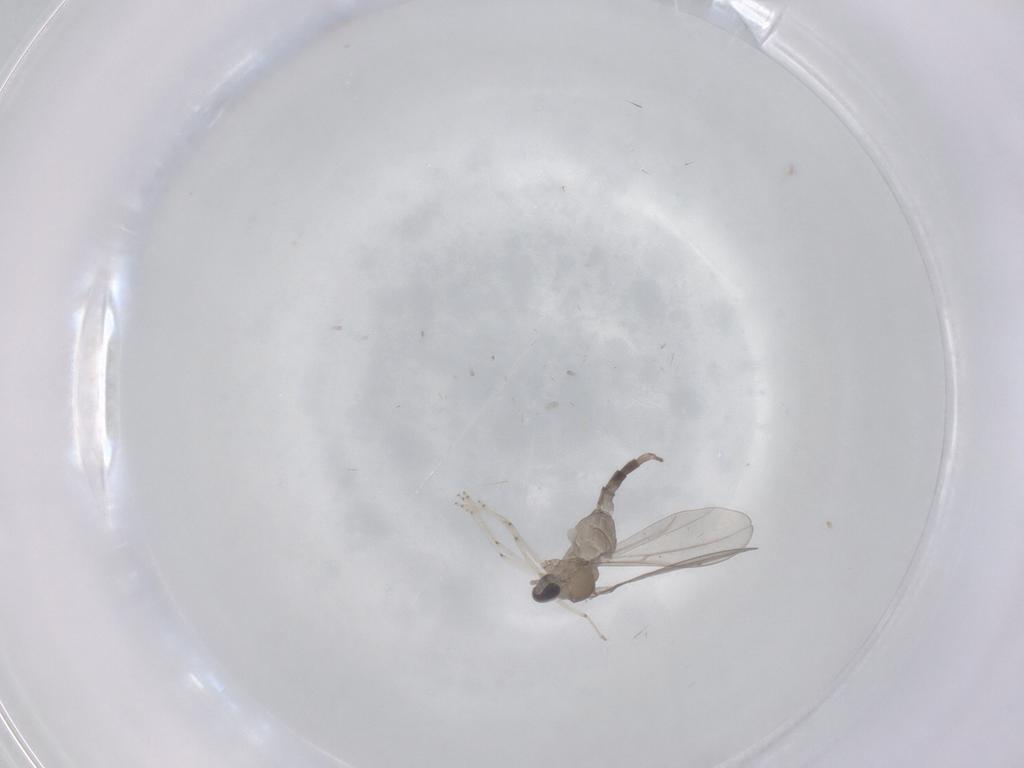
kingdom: Animalia
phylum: Arthropoda
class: Insecta
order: Diptera
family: Cecidomyiidae
